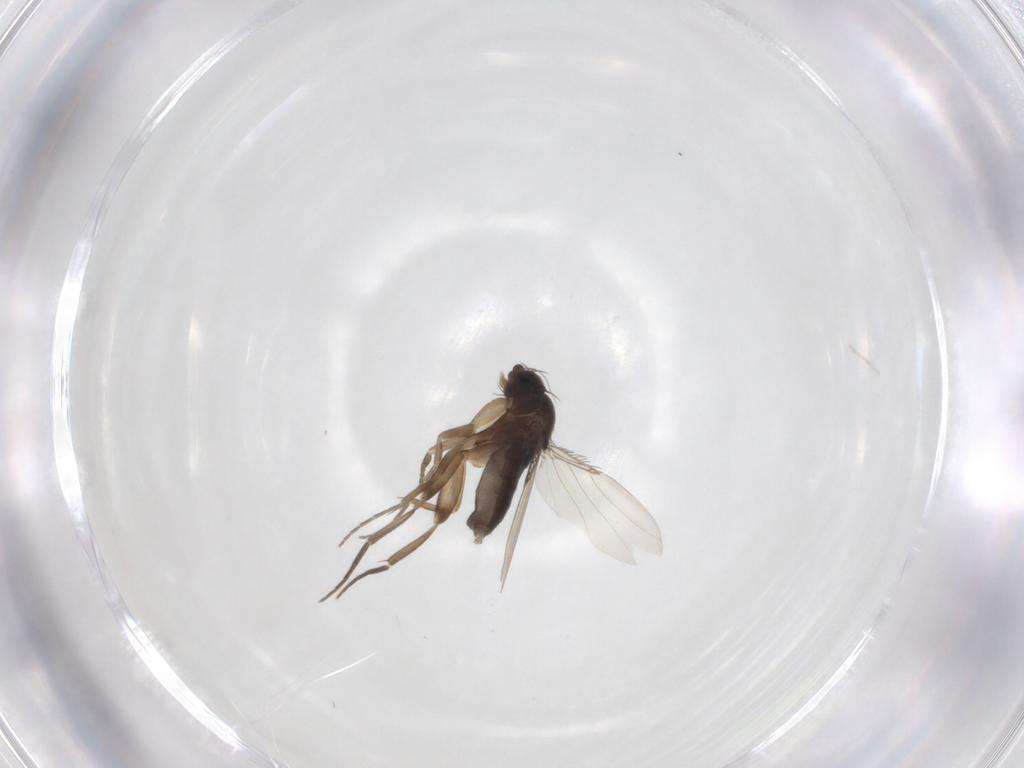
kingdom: Animalia
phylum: Arthropoda
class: Insecta
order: Diptera
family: Phoridae
